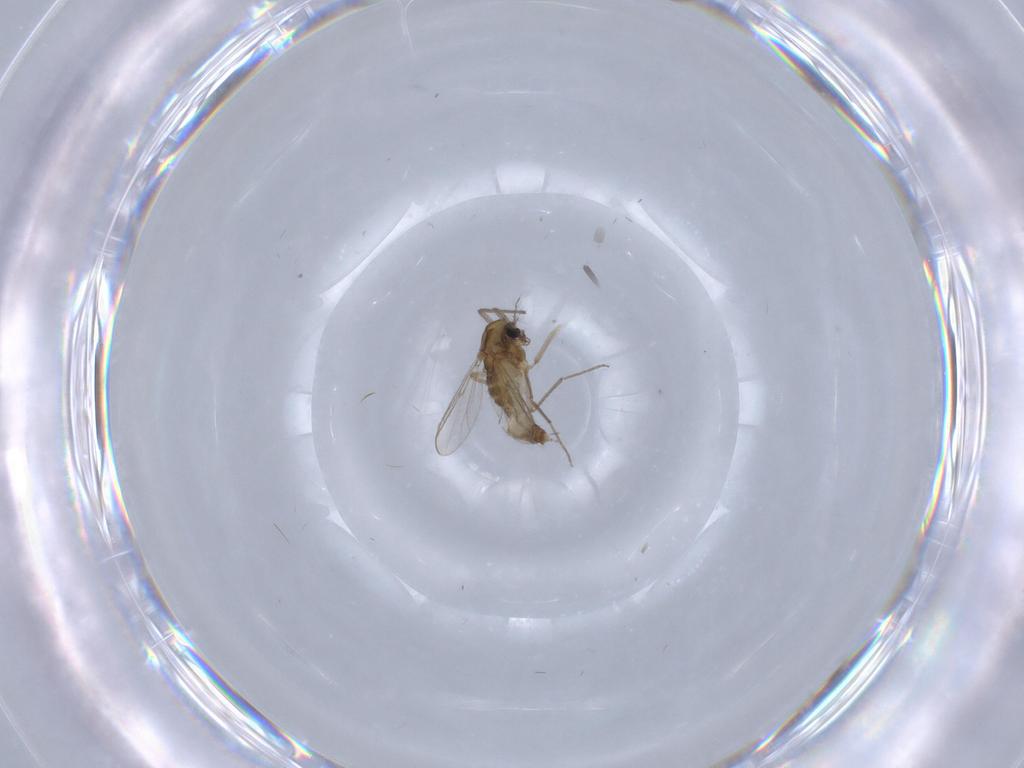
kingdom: Animalia
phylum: Arthropoda
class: Insecta
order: Diptera
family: Chironomidae
